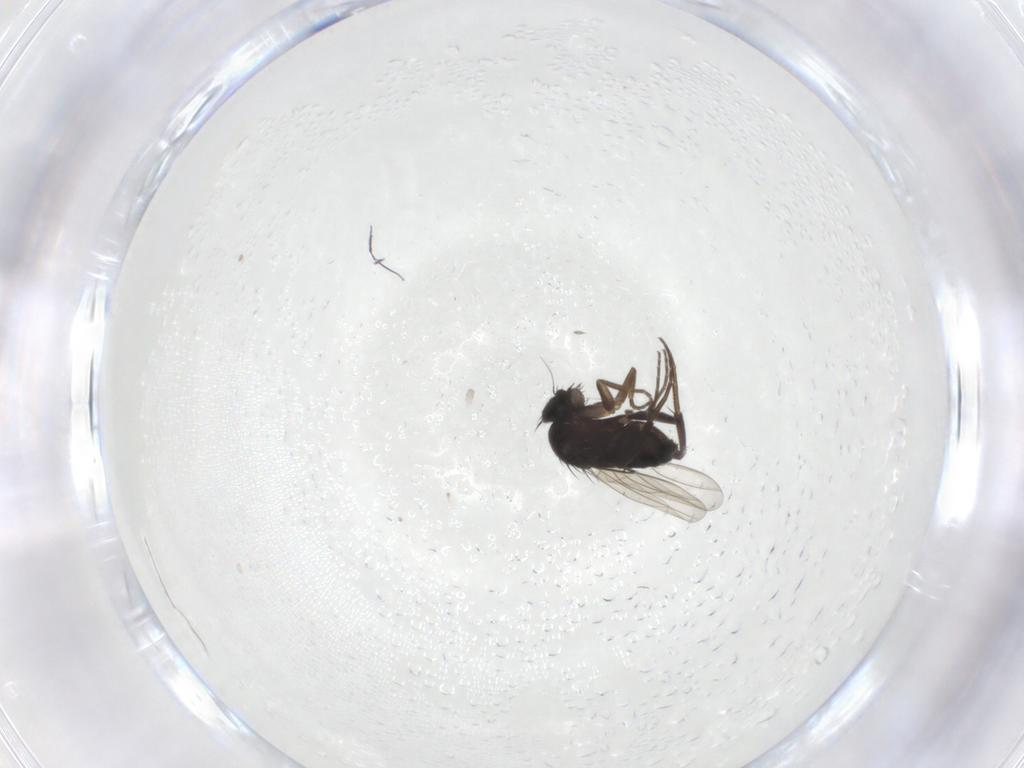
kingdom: Animalia
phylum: Arthropoda
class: Insecta
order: Diptera
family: Phoridae
